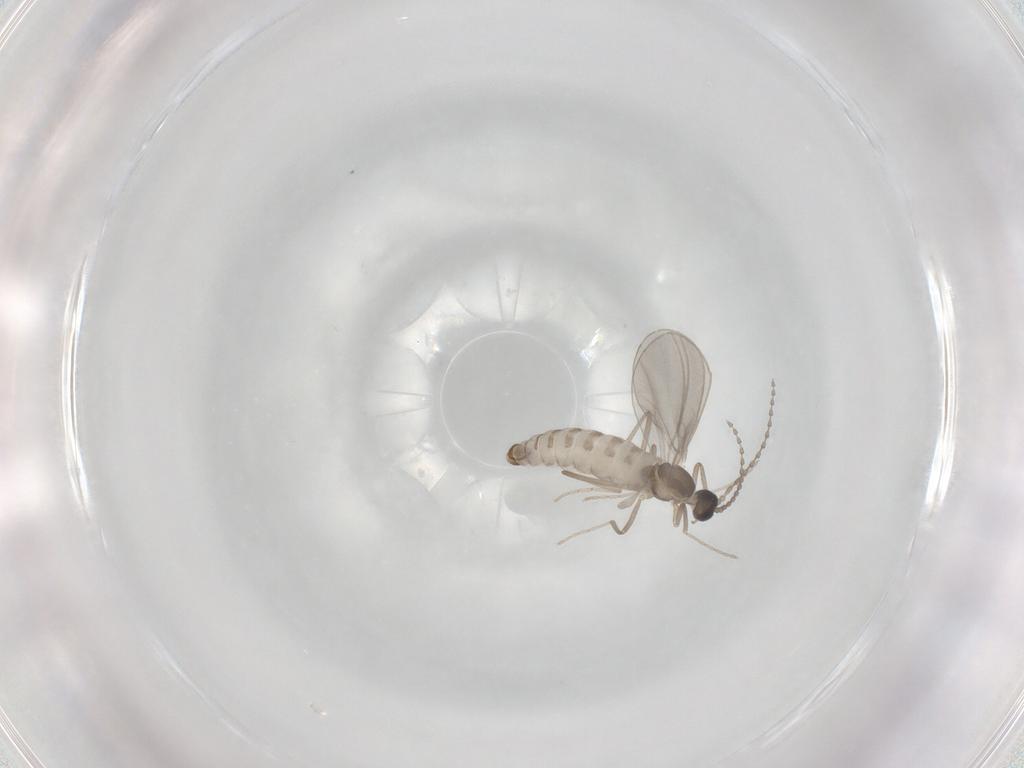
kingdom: Animalia
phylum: Arthropoda
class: Insecta
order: Diptera
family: Cecidomyiidae
